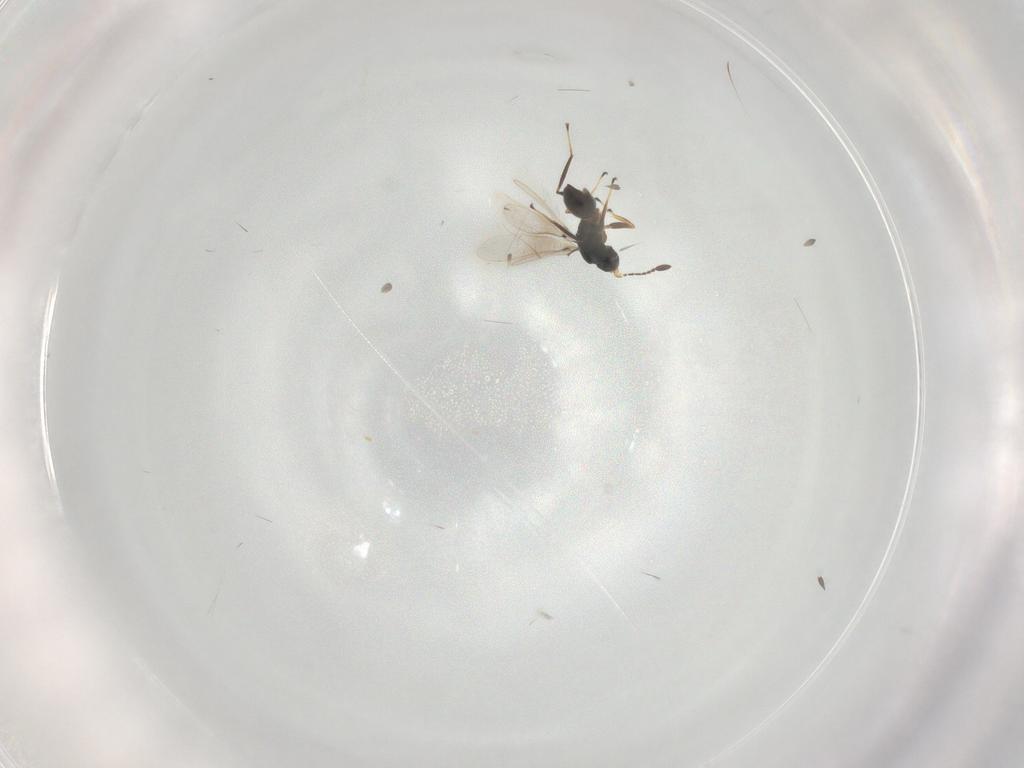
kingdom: Animalia
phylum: Arthropoda
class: Insecta
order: Hymenoptera
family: Mymaridae
